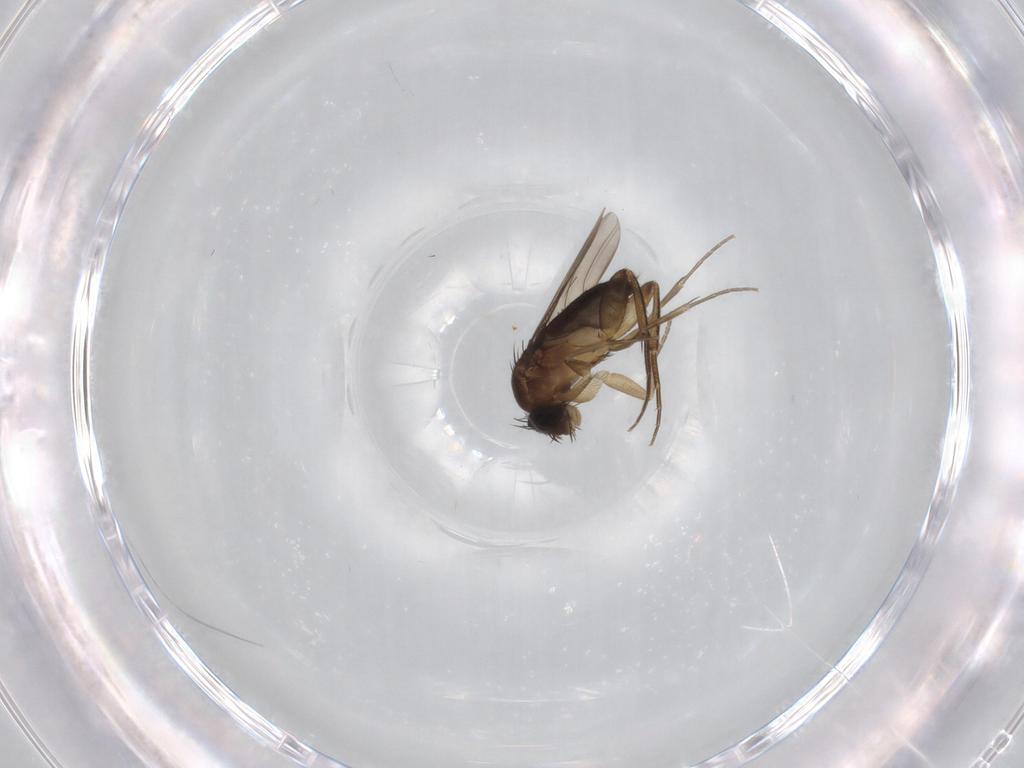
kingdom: Animalia
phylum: Arthropoda
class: Insecta
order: Diptera
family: Phoridae
